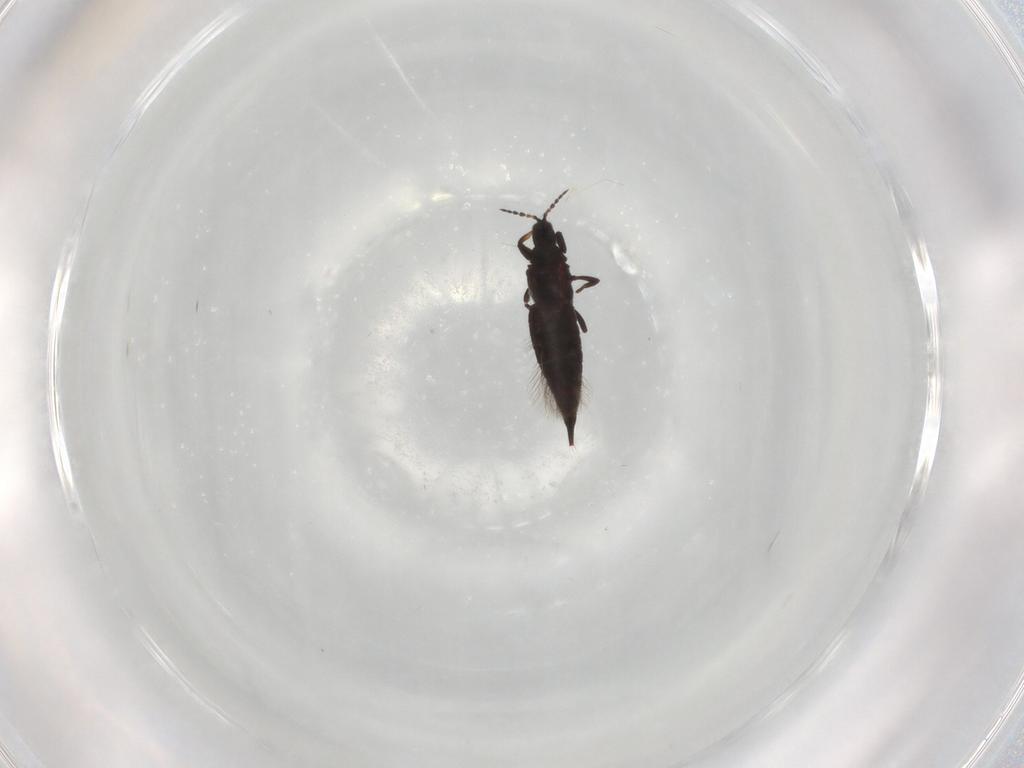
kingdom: Animalia
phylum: Arthropoda
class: Insecta
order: Thysanoptera
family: Phlaeothripidae
